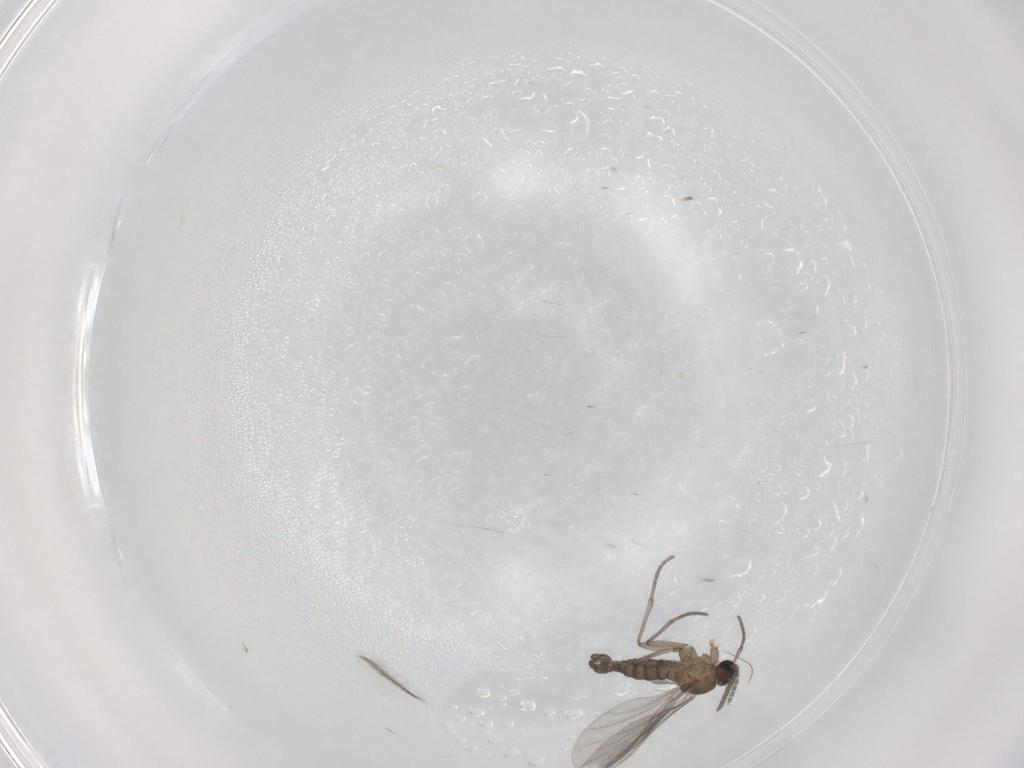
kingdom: Animalia
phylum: Arthropoda
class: Insecta
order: Diptera
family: Sciaridae
